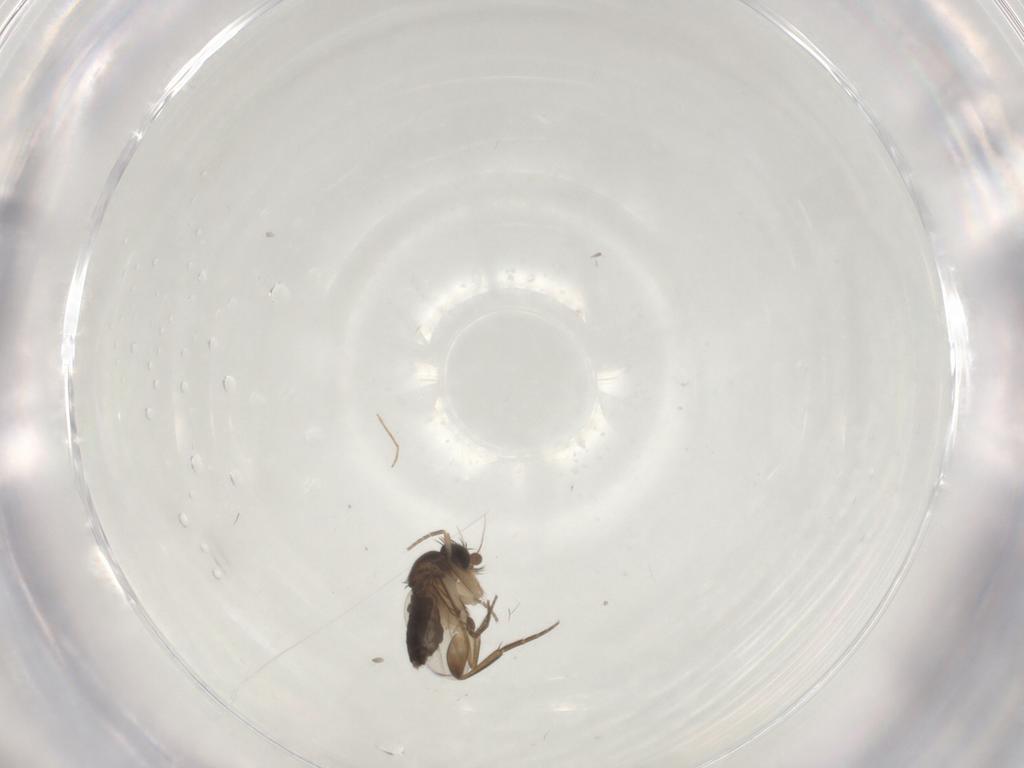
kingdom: Animalia
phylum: Arthropoda
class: Insecta
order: Diptera
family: Phoridae
